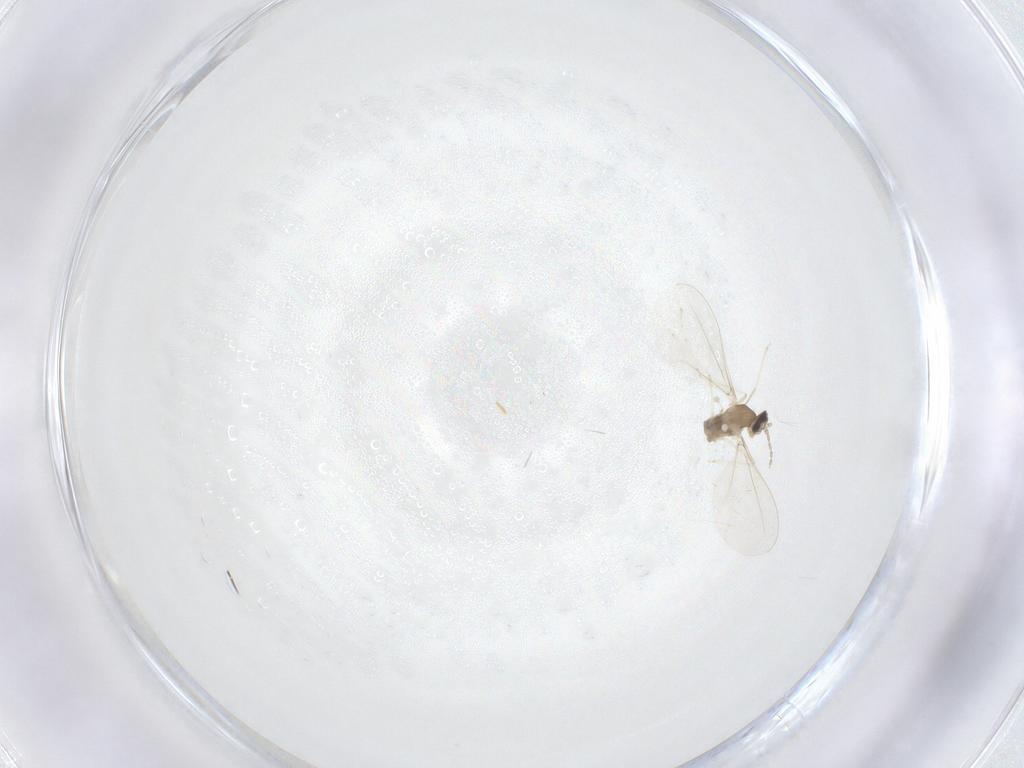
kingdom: Animalia
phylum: Arthropoda
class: Insecta
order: Diptera
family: Cecidomyiidae
